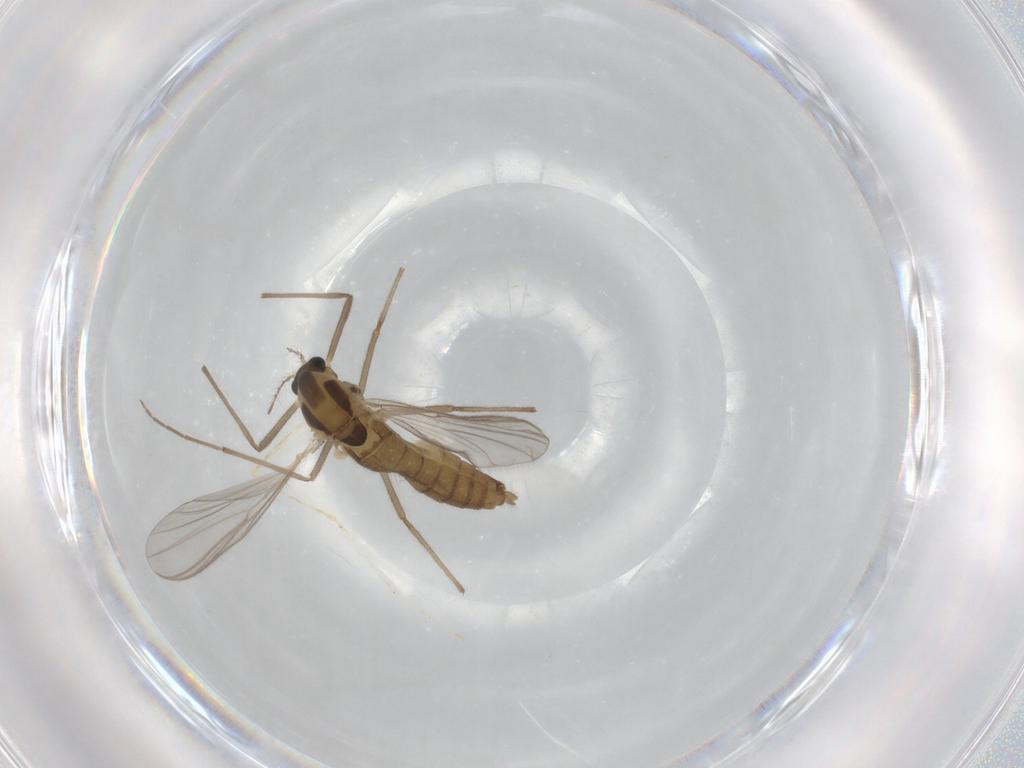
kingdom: Animalia
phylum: Arthropoda
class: Insecta
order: Diptera
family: Chironomidae
